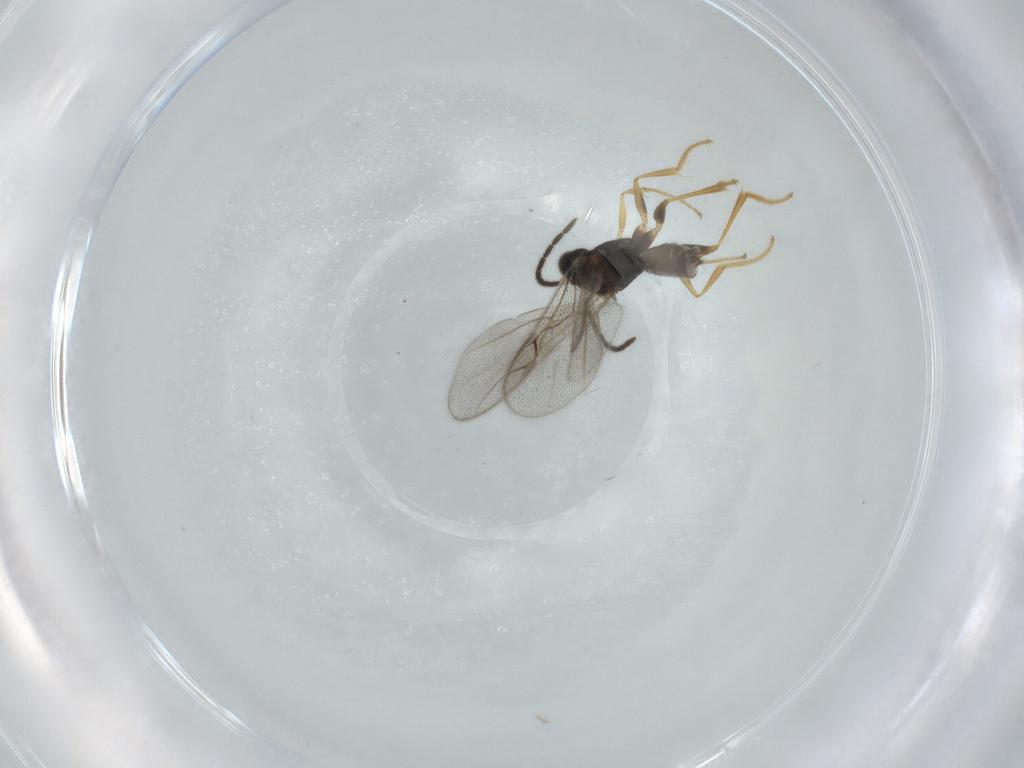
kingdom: Animalia
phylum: Arthropoda
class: Insecta
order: Hymenoptera
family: Dryinidae
